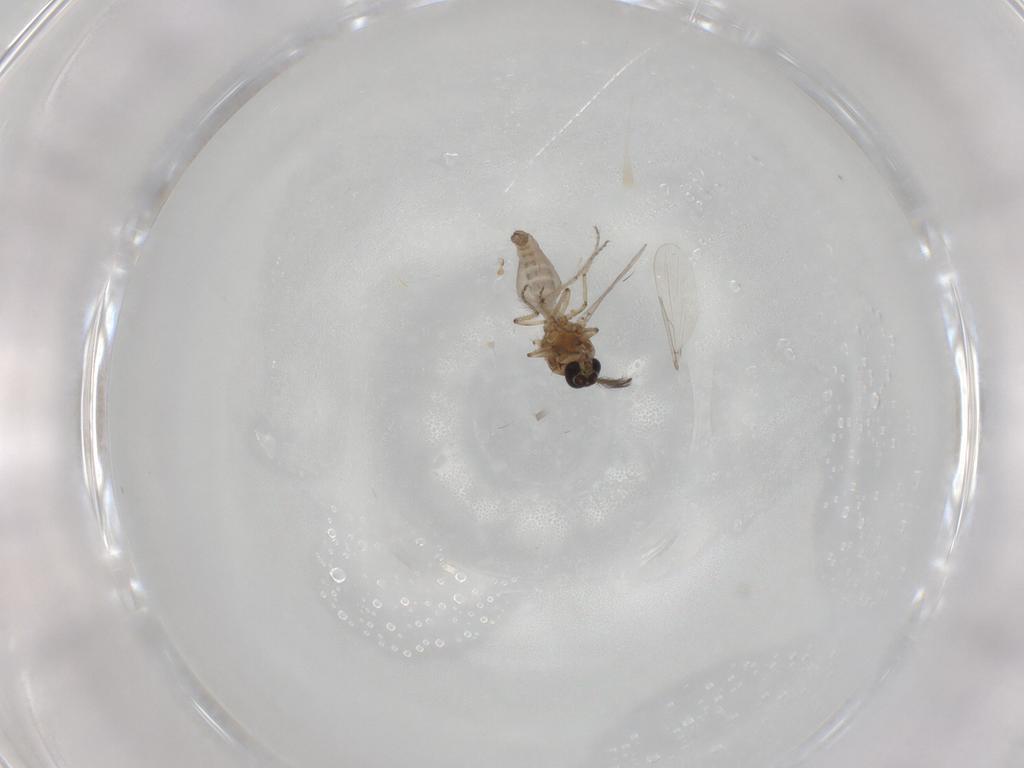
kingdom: Animalia
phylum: Arthropoda
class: Insecta
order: Diptera
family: Ceratopogonidae
